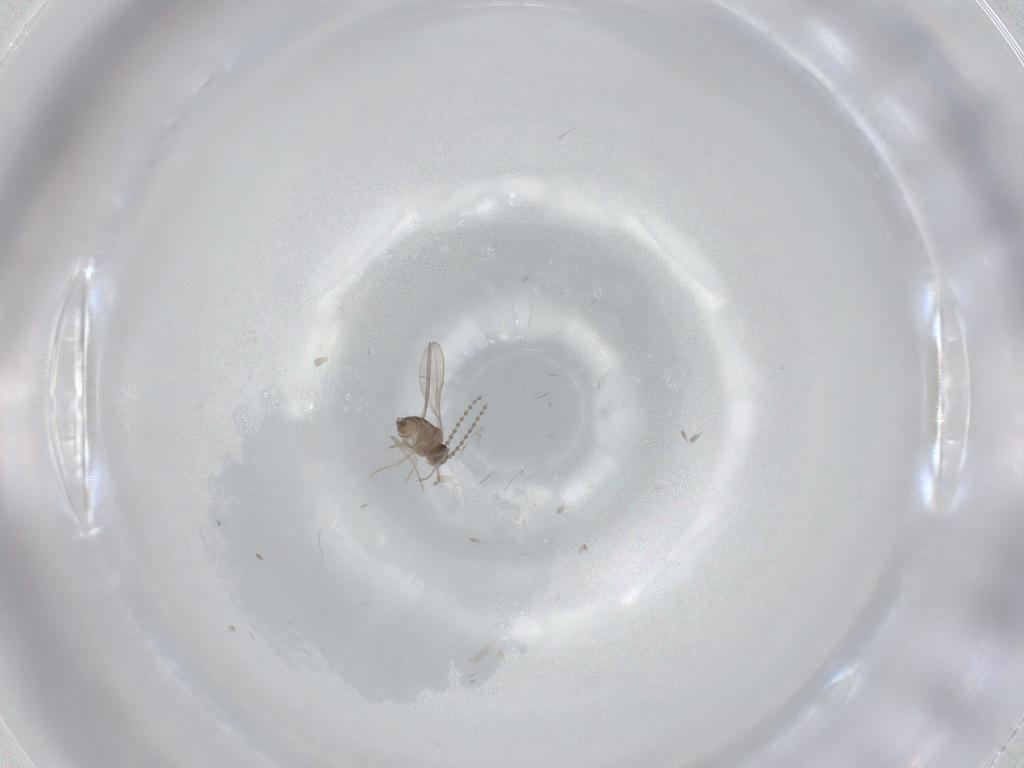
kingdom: Animalia
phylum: Arthropoda
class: Insecta
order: Diptera
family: Cecidomyiidae
